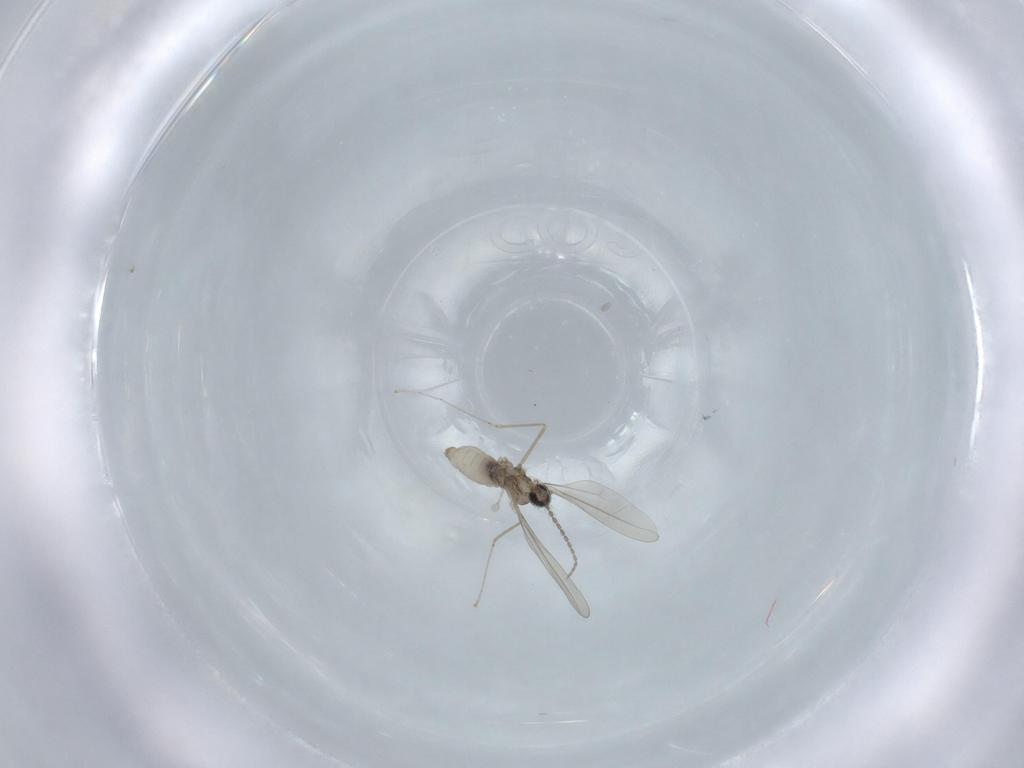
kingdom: Animalia
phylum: Arthropoda
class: Insecta
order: Diptera
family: Cecidomyiidae
